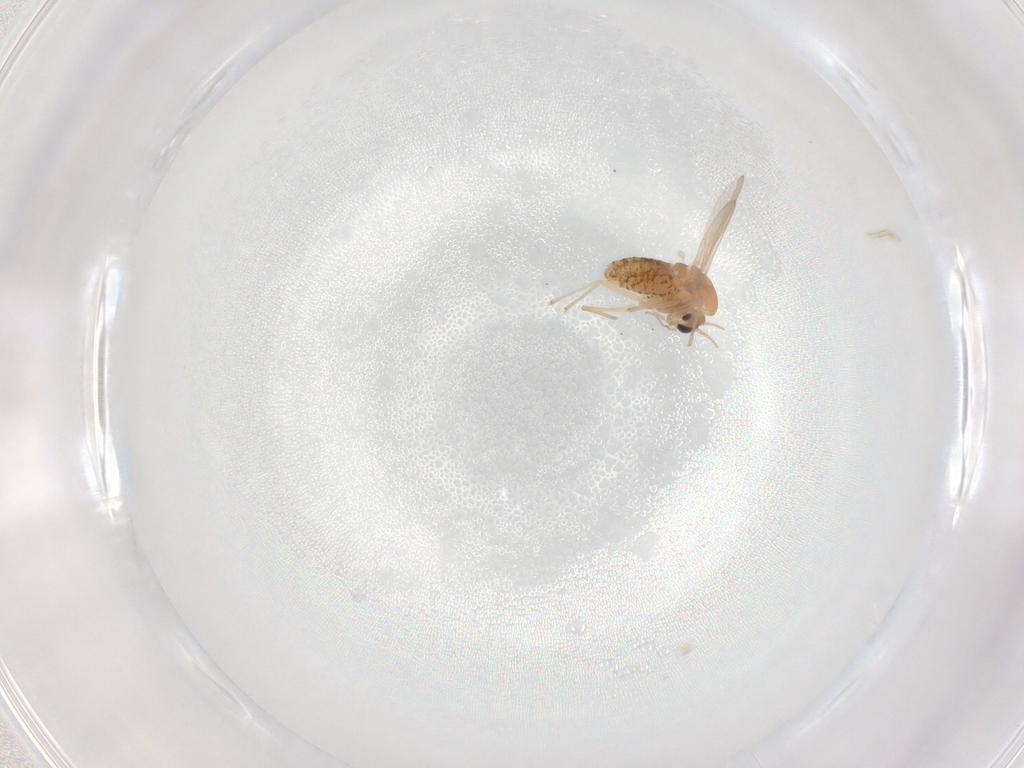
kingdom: Animalia
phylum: Arthropoda
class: Insecta
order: Diptera
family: Chironomidae
